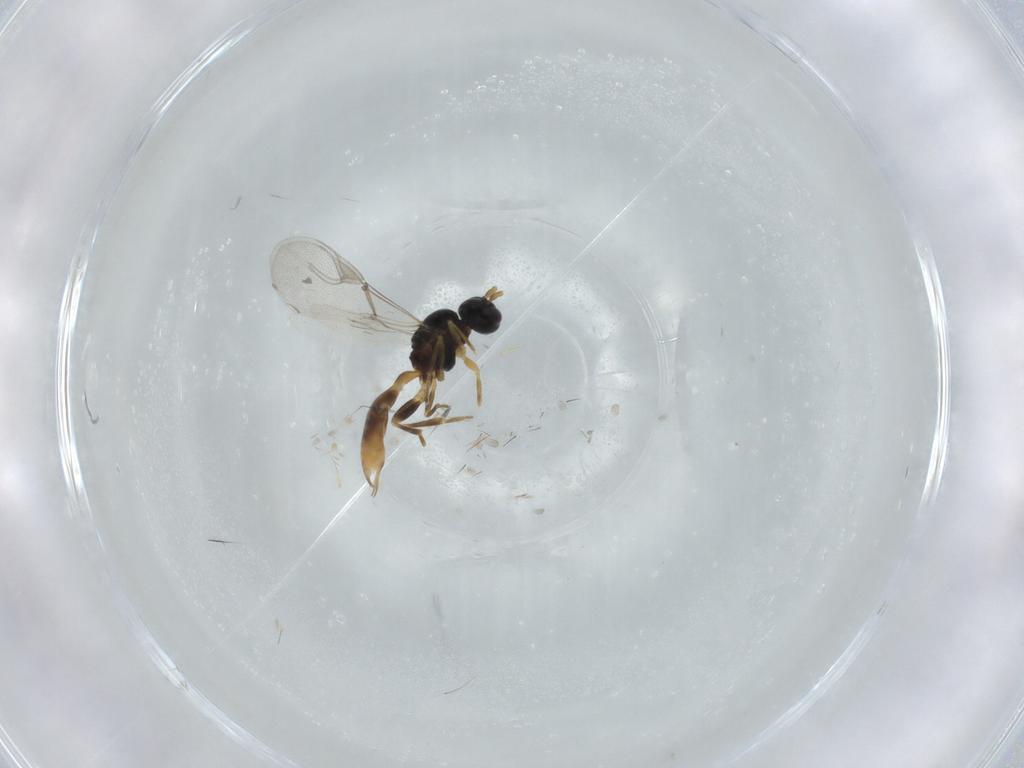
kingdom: Animalia
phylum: Arthropoda
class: Insecta
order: Hymenoptera
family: Braconidae
